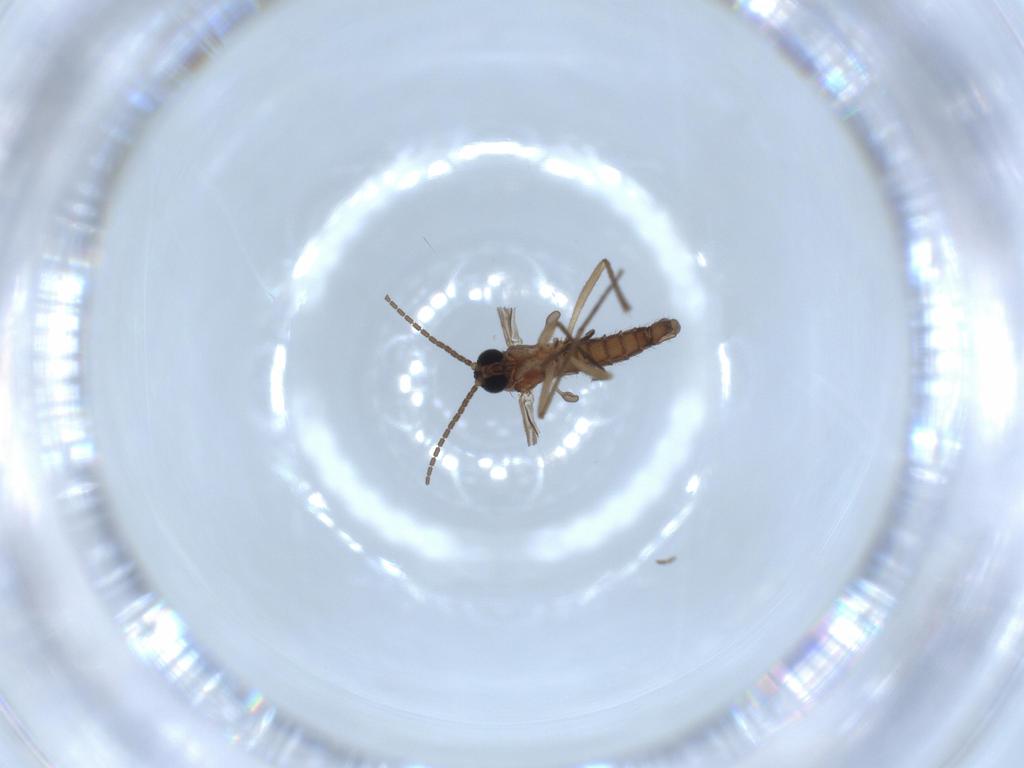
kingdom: Animalia
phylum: Arthropoda
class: Insecta
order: Diptera
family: Sciaridae
